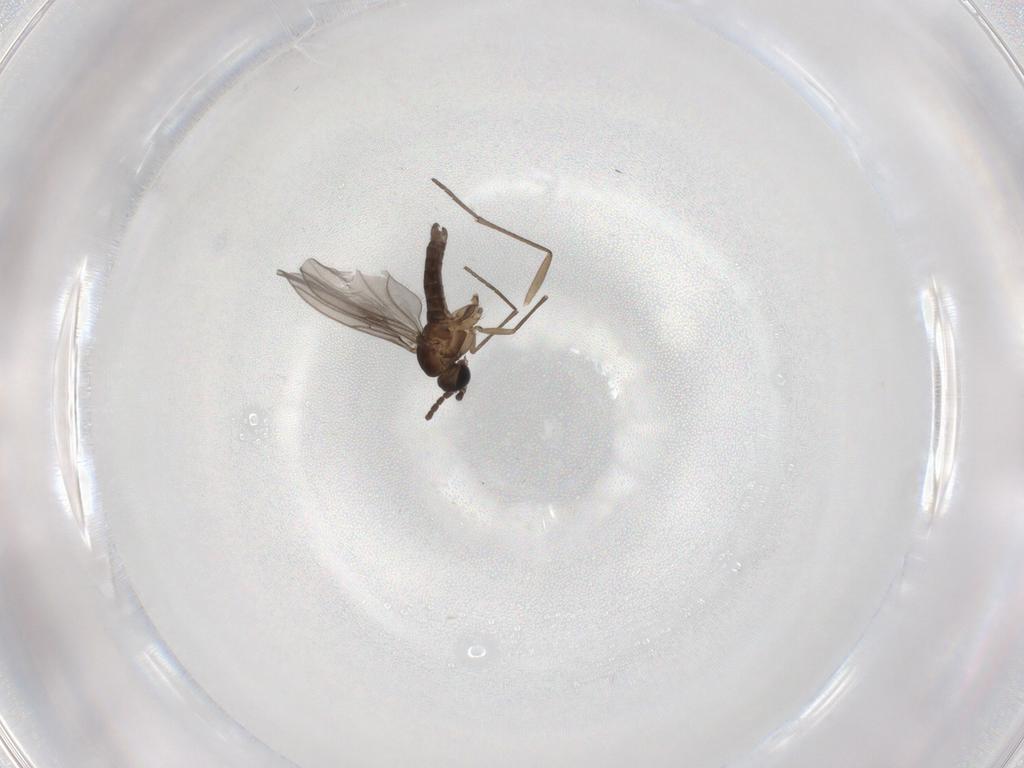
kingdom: Animalia
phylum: Arthropoda
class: Insecta
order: Diptera
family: Sciaridae
